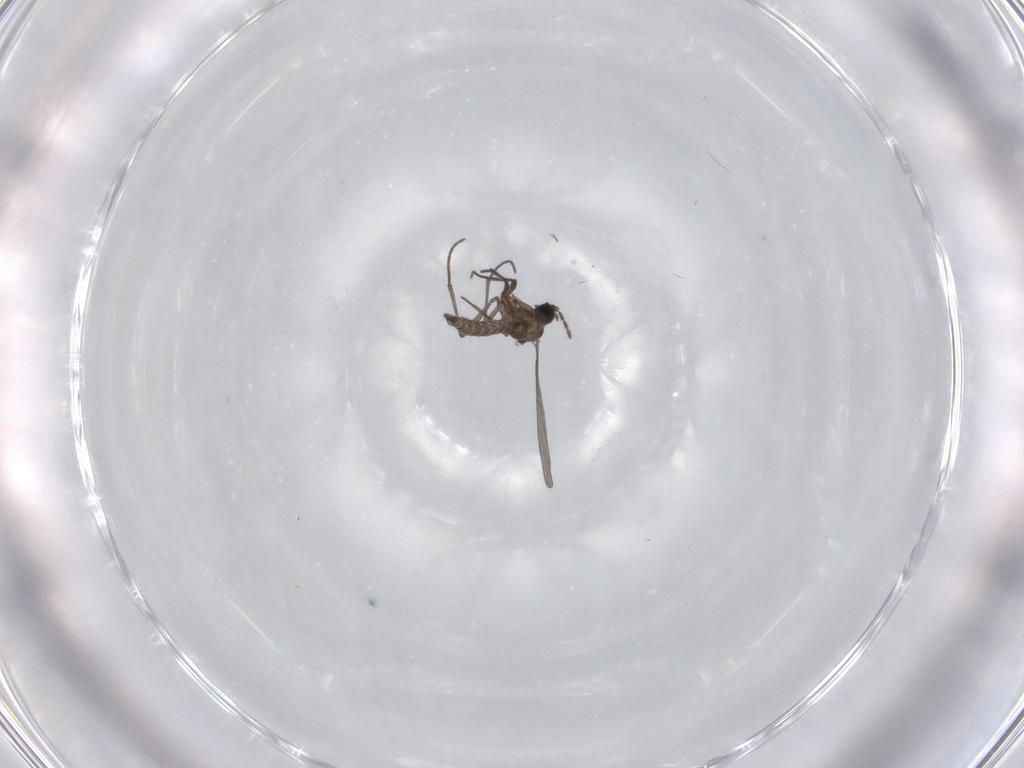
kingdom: Animalia
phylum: Arthropoda
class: Insecta
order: Diptera
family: Sciaridae
